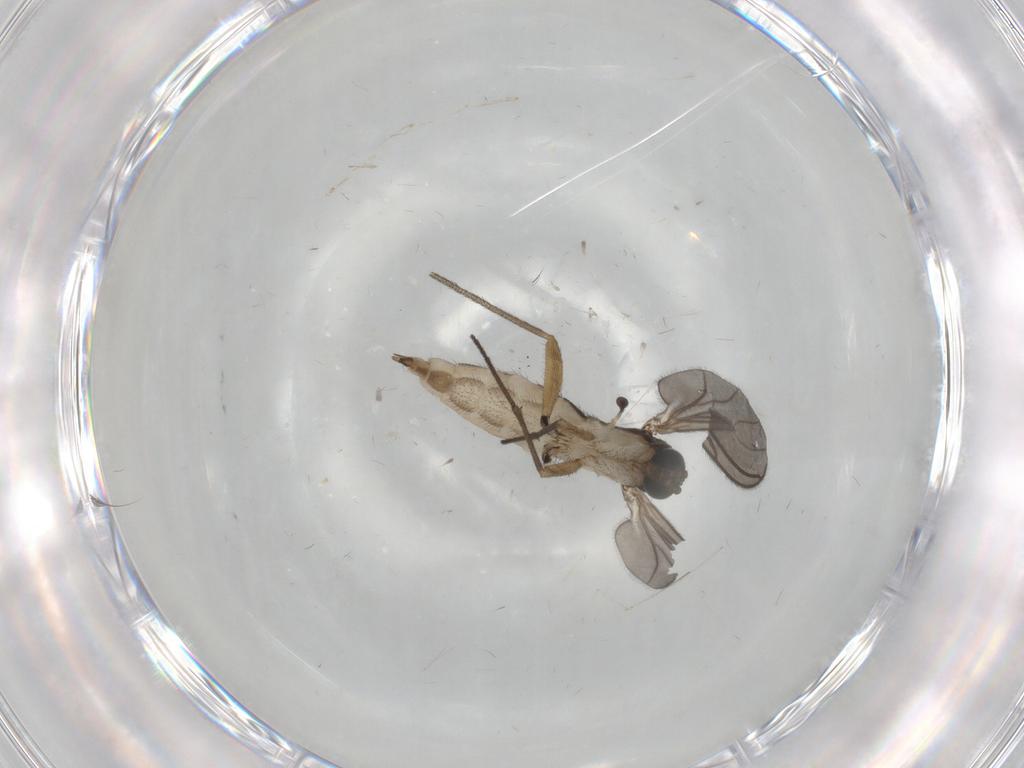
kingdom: Animalia
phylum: Arthropoda
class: Insecta
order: Diptera
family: Sciaridae
